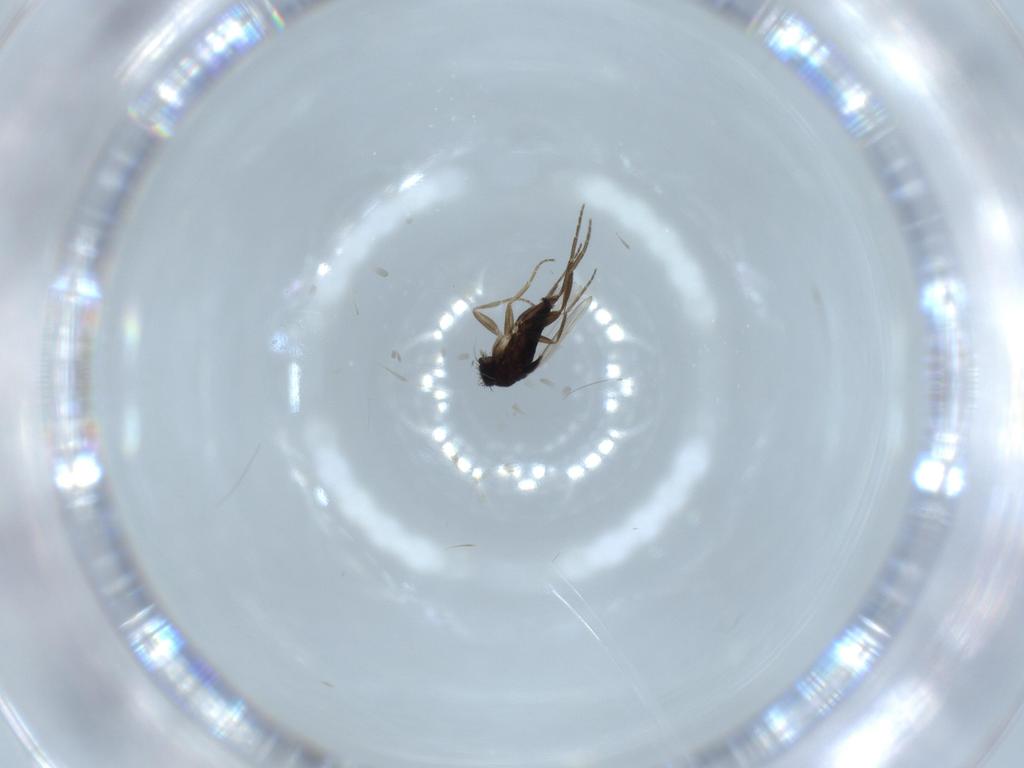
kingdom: Animalia
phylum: Arthropoda
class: Insecta
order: Diptera
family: Phoridae
